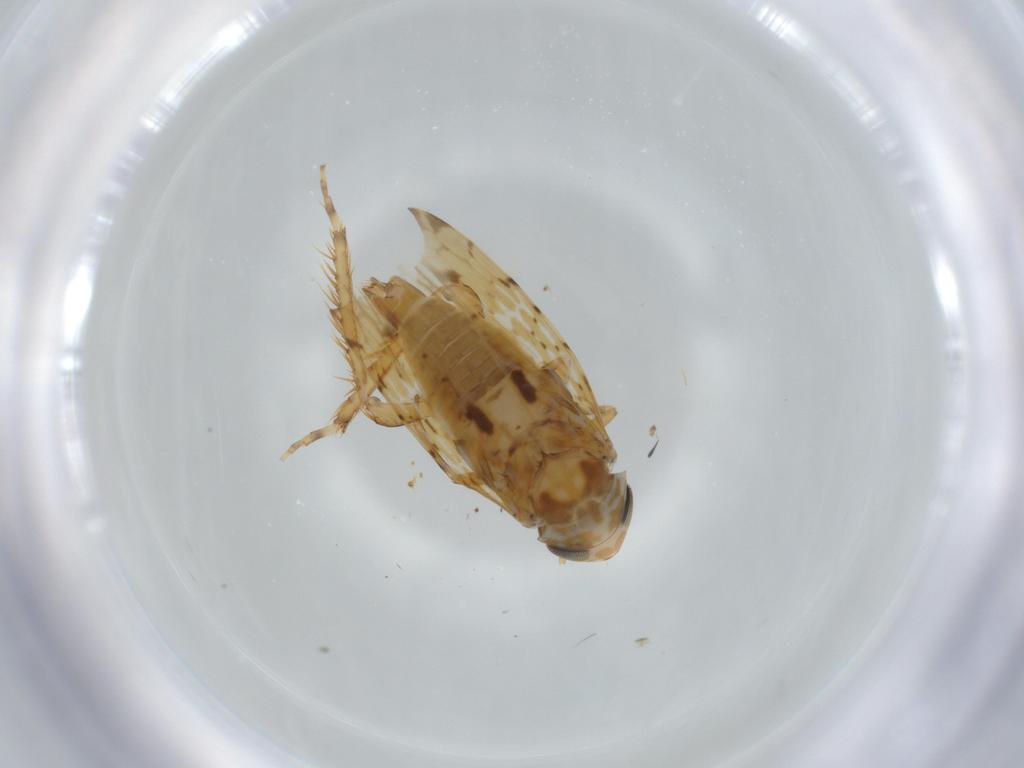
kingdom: Animalia
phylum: Arthropoda
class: Insecta
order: Hemiptera
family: Cicadellidae
